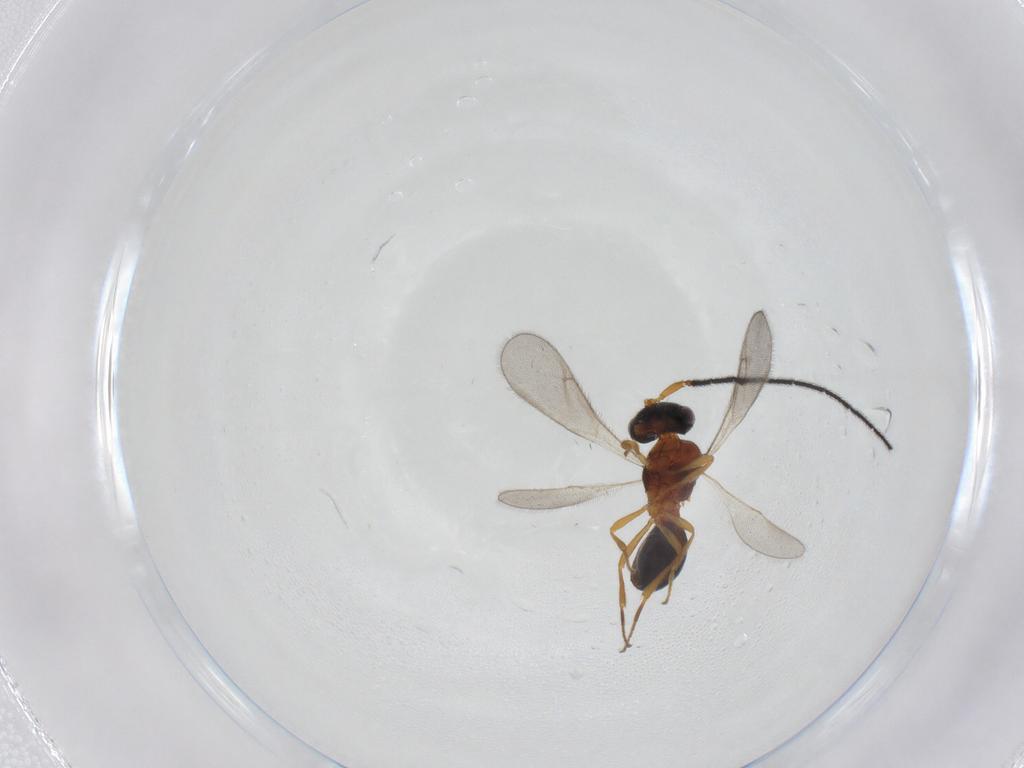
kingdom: Animalia
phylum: Arthropoda
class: Insecta
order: Hymenoptera
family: Scelionidae
